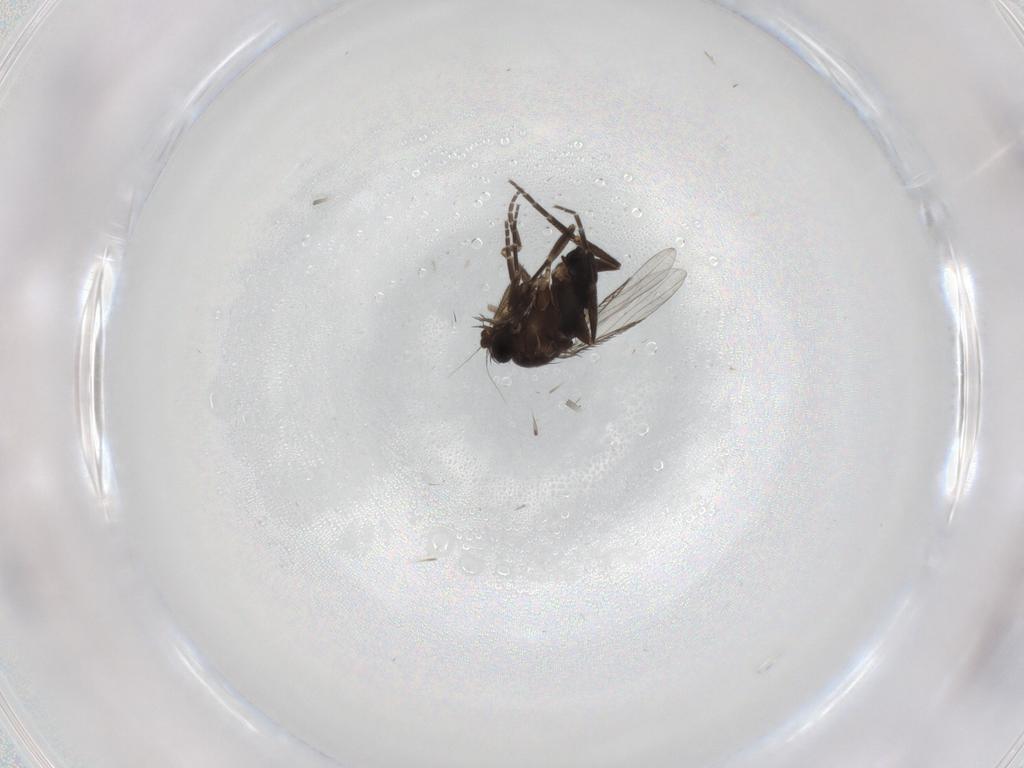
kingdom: Animalia
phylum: Arthropoda
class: Insecta
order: Diptera
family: Phoridae
